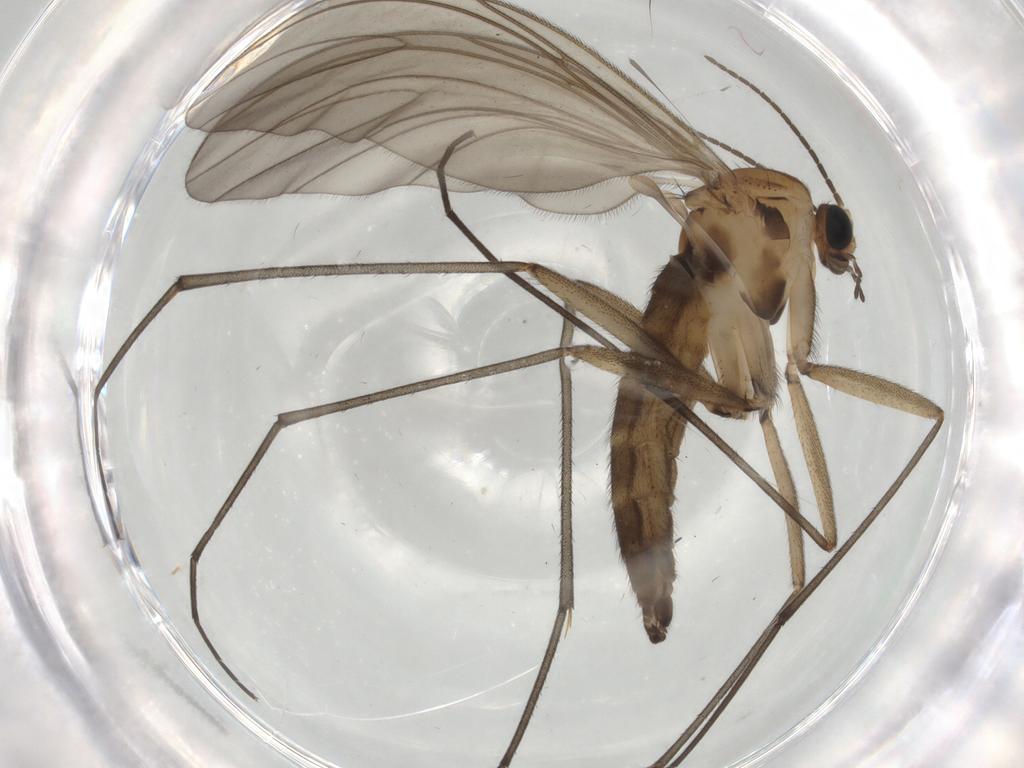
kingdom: Animalia
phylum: Arthropoda
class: Insecta
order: Diptera
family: Sciaridae
